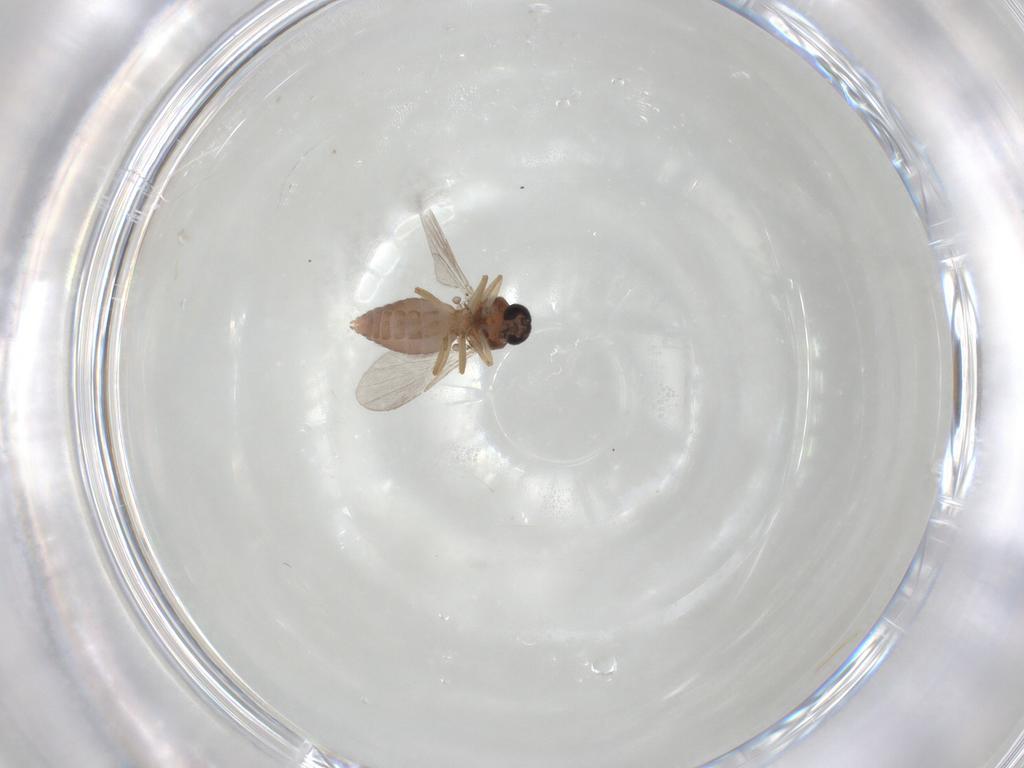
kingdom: Animalia
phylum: Arthropoda
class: Insecta
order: Diptera
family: Ceratopogonidae
